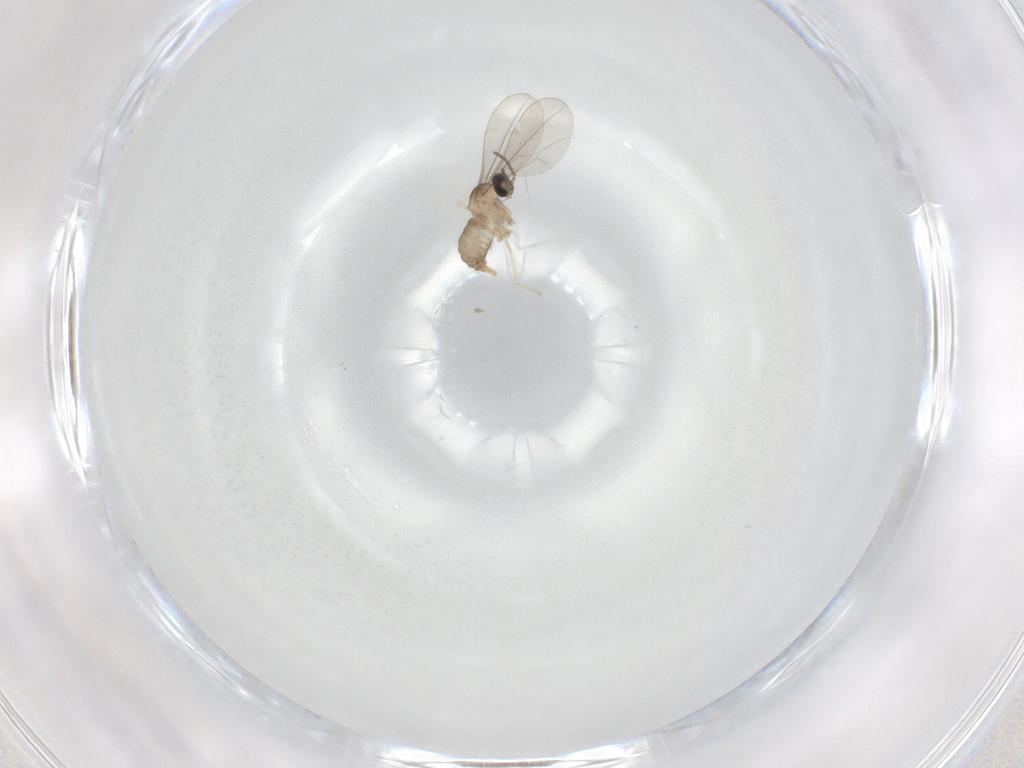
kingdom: Animalia
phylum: Arthropoda
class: Insecta
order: Diptera
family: Cecidomyiidae
